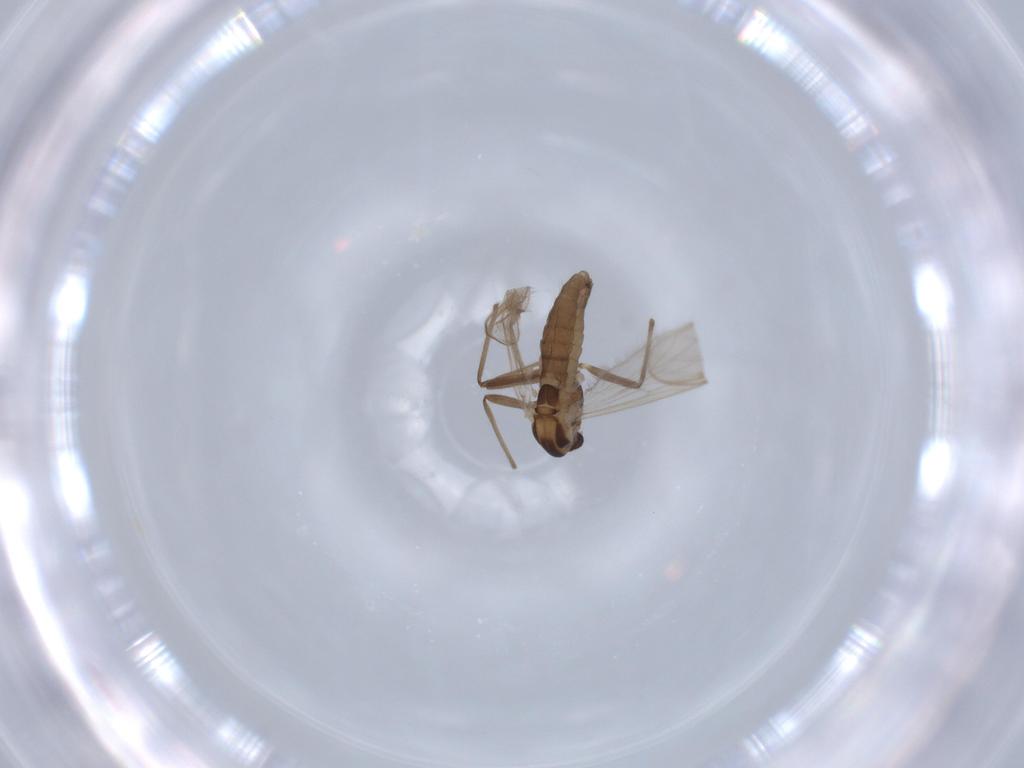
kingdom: Animalia
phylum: Arthropoda
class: Insecta
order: Diptera
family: Chironomidae
